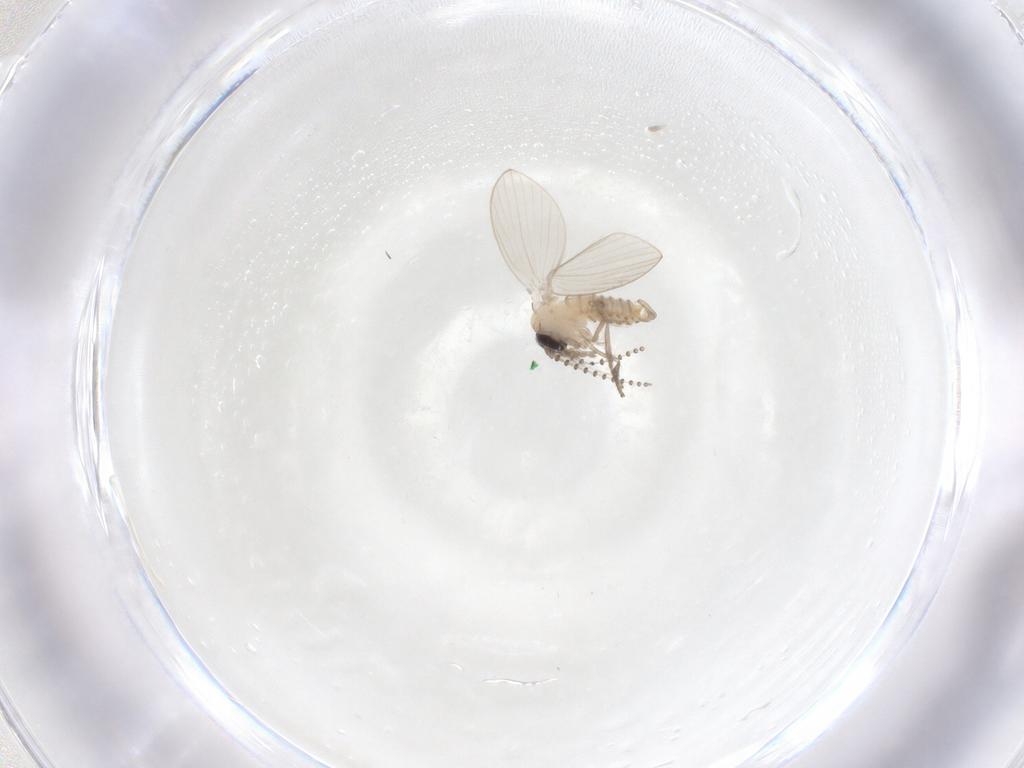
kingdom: Animalia
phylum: Arthropoda
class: Insecta
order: Diptera
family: Psychodidae
